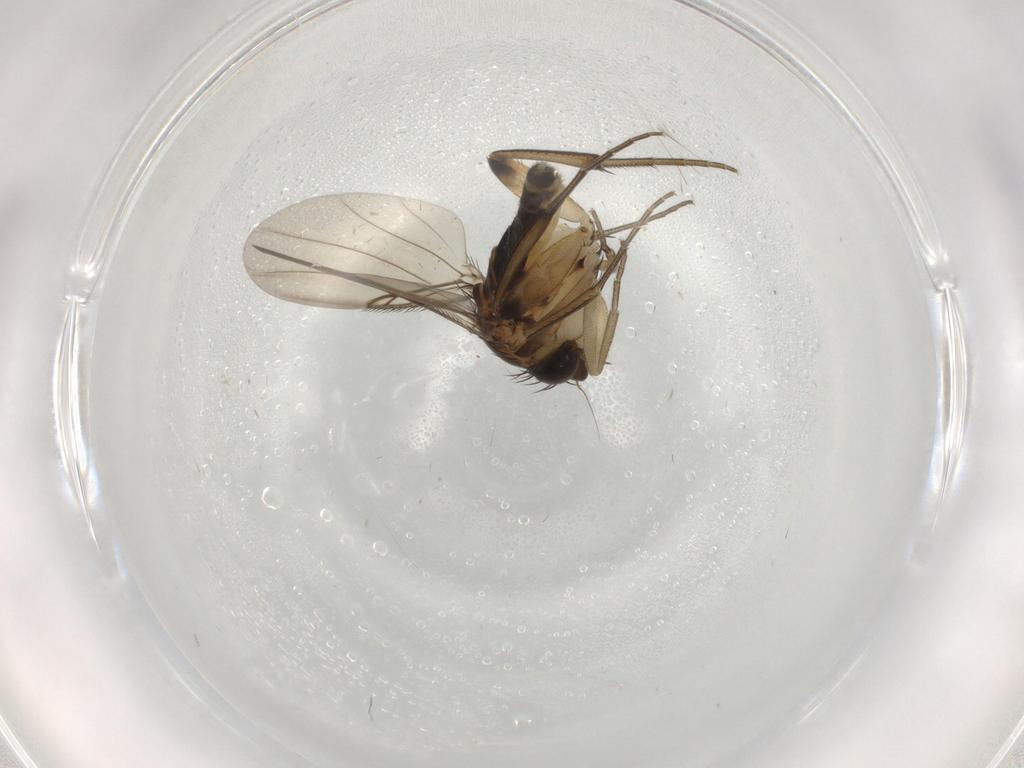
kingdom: Animalia
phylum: Arthropoda
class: Insecta
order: Diptera
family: Phoridae
